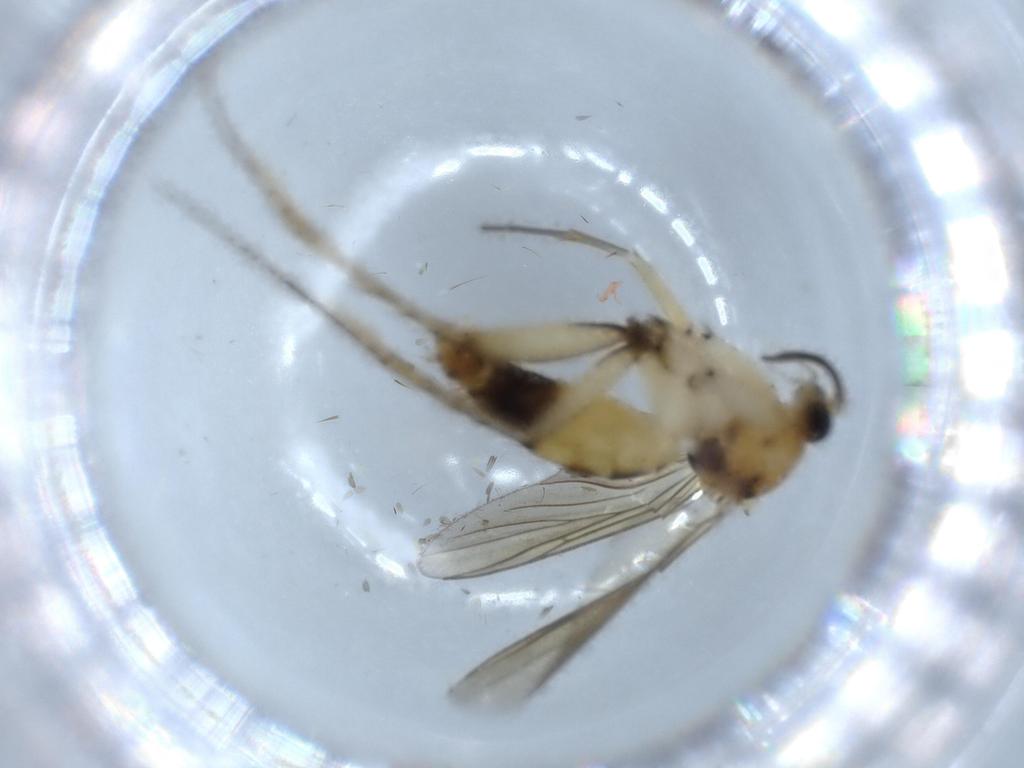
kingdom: Animalia
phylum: Arthropoda
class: Insecta
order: Diptera
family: Mycetophilidae
